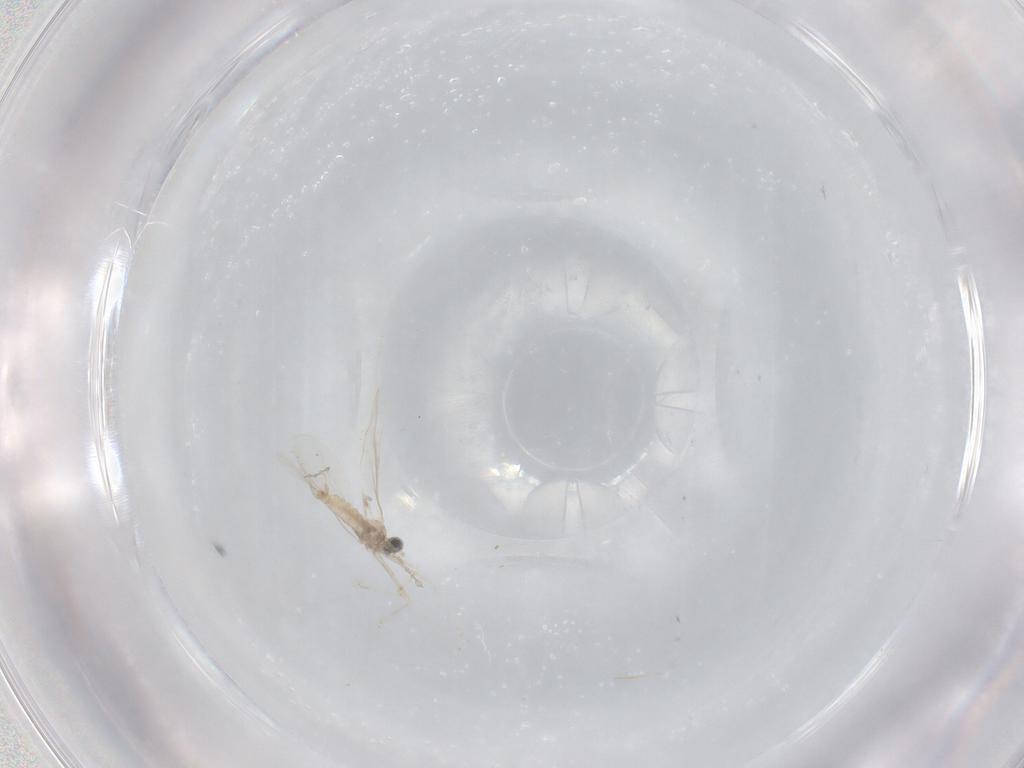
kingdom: Animalia
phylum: Arthropoda
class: Insecta
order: Diptera
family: Cecidomyiidae
